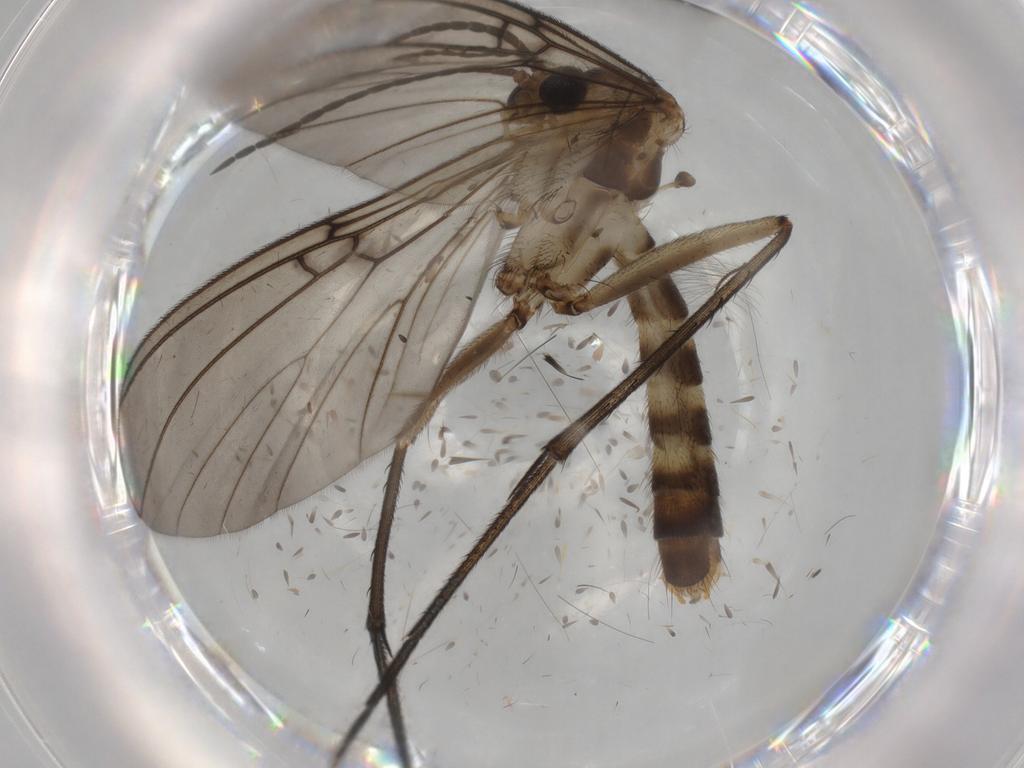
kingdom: Animalia
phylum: Arthropoda
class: Insecta
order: Diptera
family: Mycetophilidae
